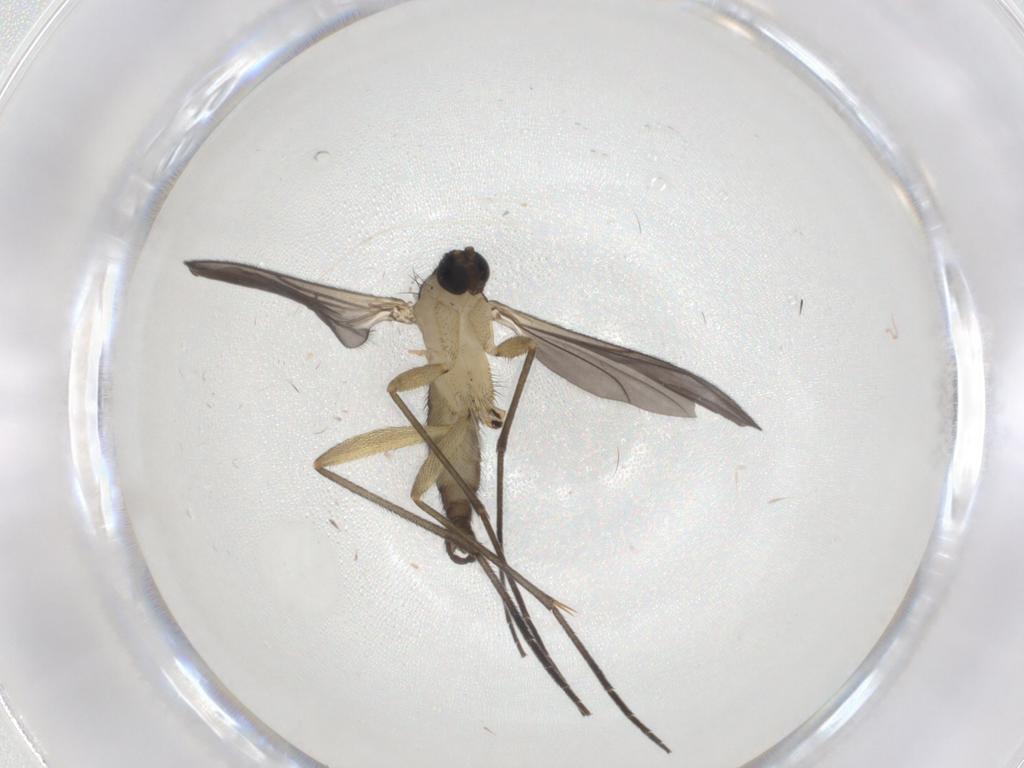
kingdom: Animalia
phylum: Arthropoda
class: Insecta
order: Diptera
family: Sciaridae
